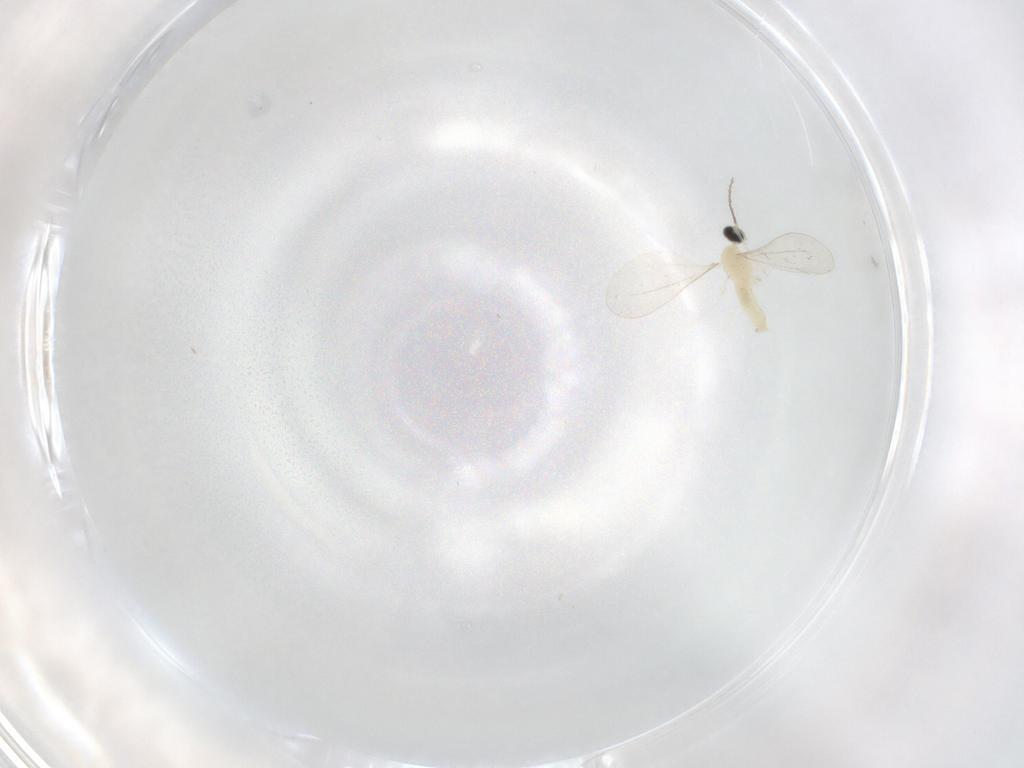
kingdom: Animalia
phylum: Arthropoda
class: Insecta
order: Diptera
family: Cecidomyiidae
